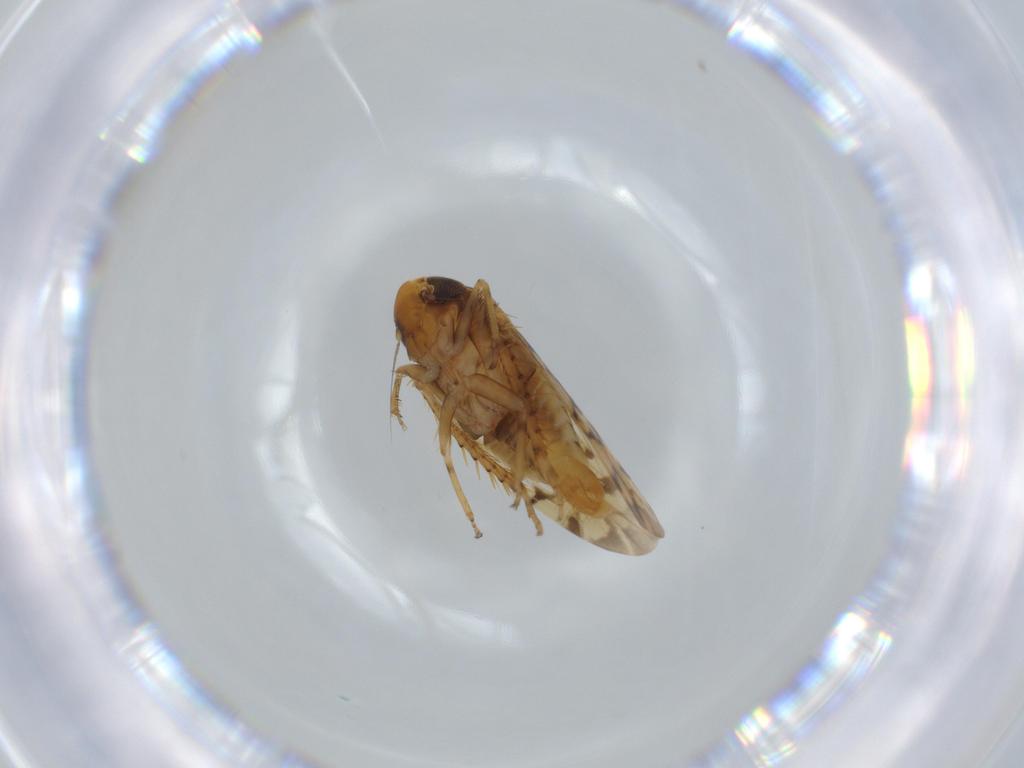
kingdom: Animalia
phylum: Arthropoda
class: Insecta
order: Hemiptera
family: Cicadellidae
